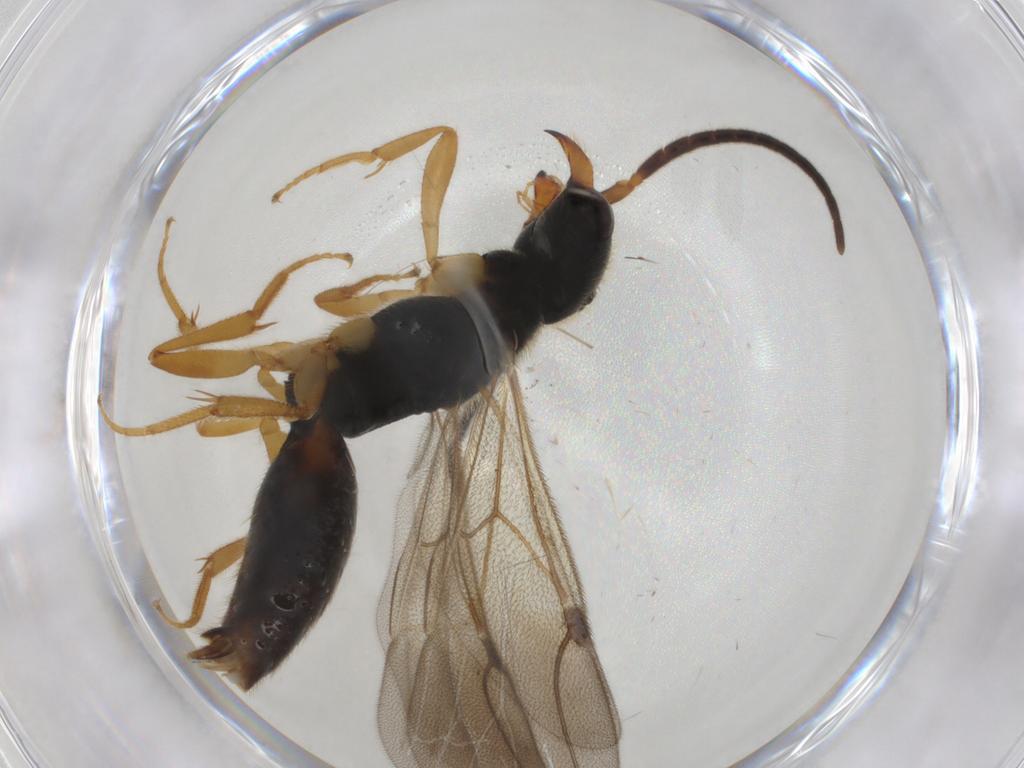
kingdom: Animalia
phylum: Arthropoda
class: Insecta
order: Hymenoptera
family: Bethylidae
